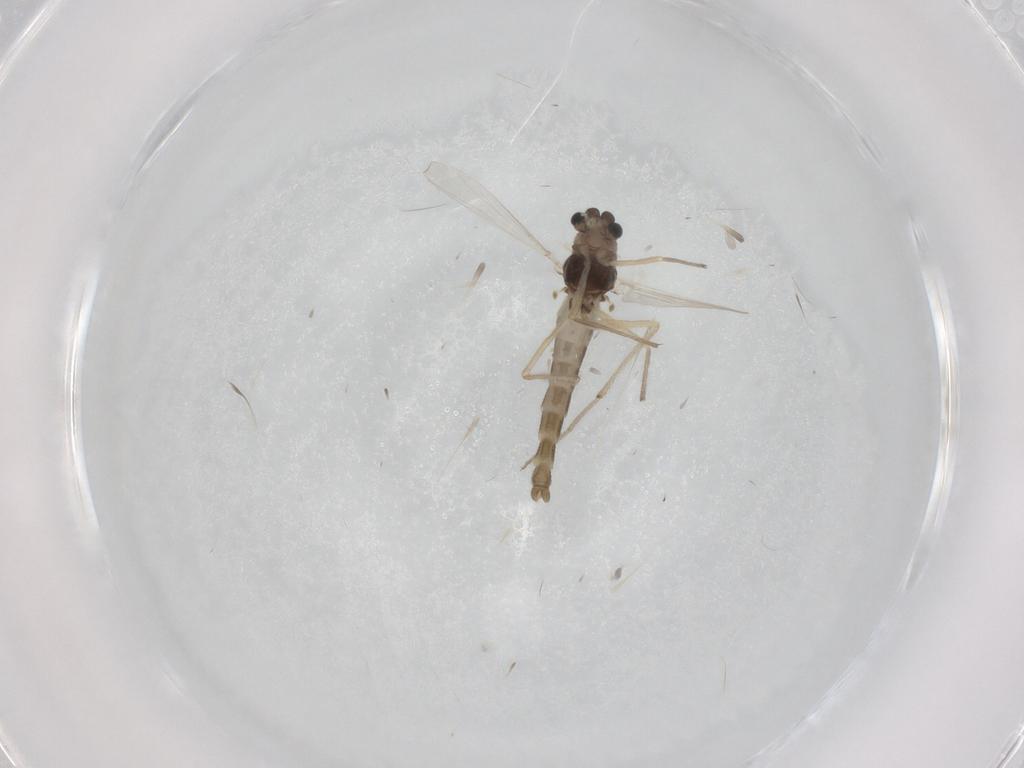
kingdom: Animalia
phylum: Arthropoda
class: Insecta
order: Diptera
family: Chironomidae
